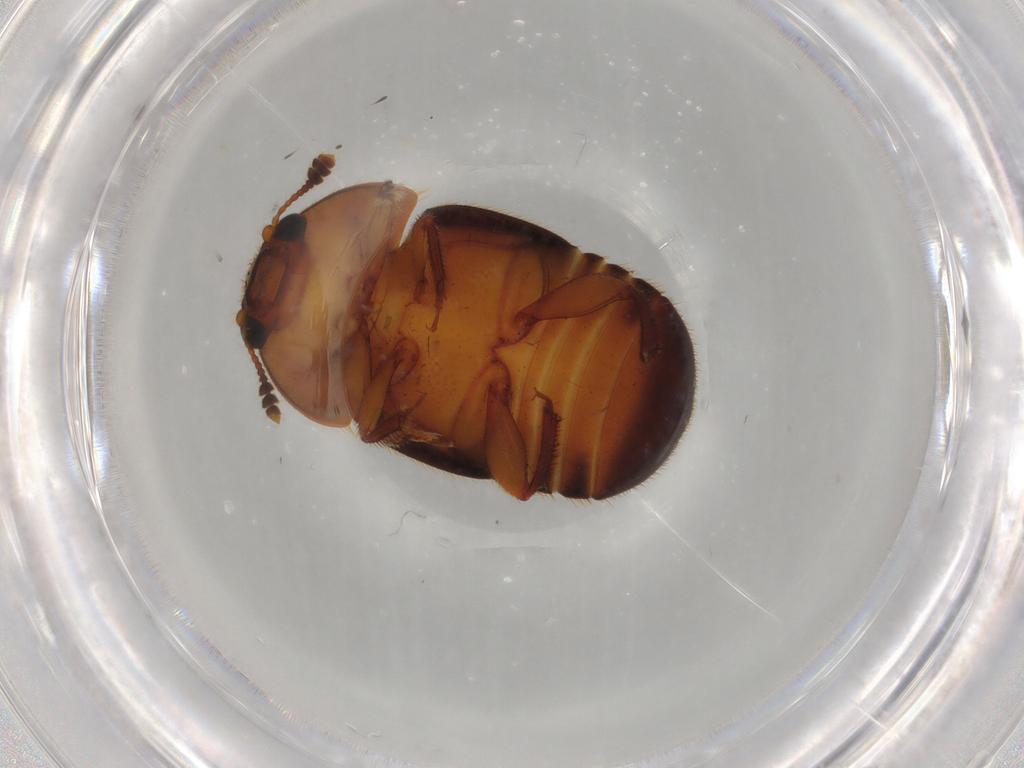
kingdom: Animalia
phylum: Arthropoda
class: Insecta
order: Coleoptera
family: Nitidulidae
